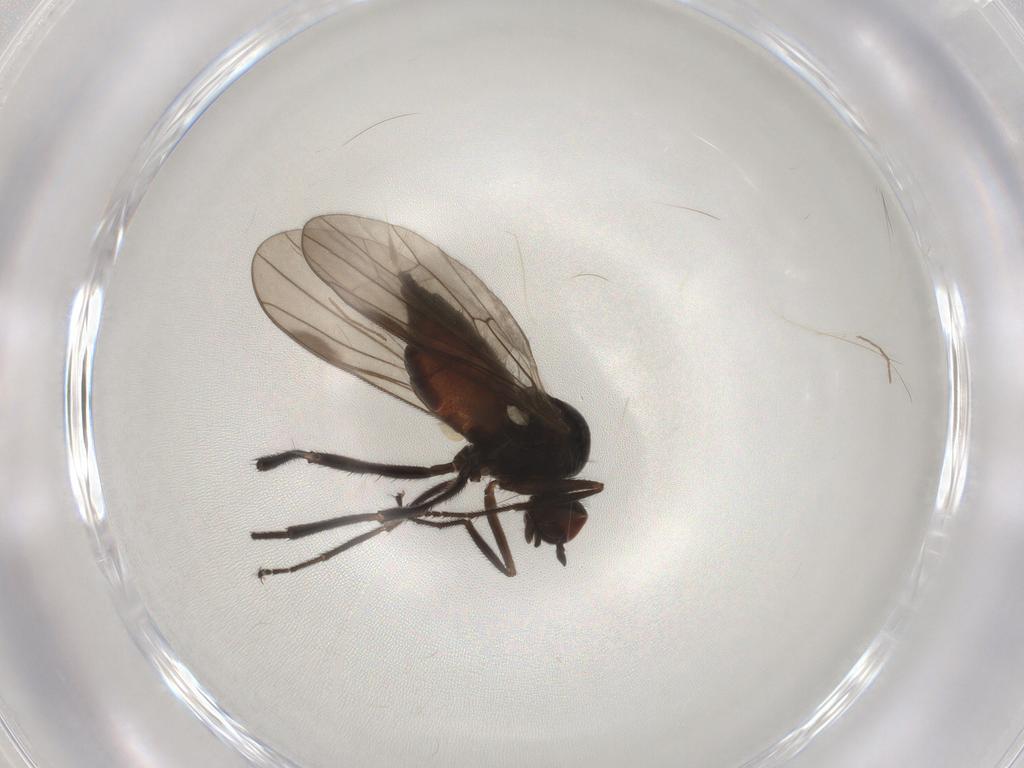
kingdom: Animalia
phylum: Arthropoda
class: Insecta
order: Diptera
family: Hybotidae
